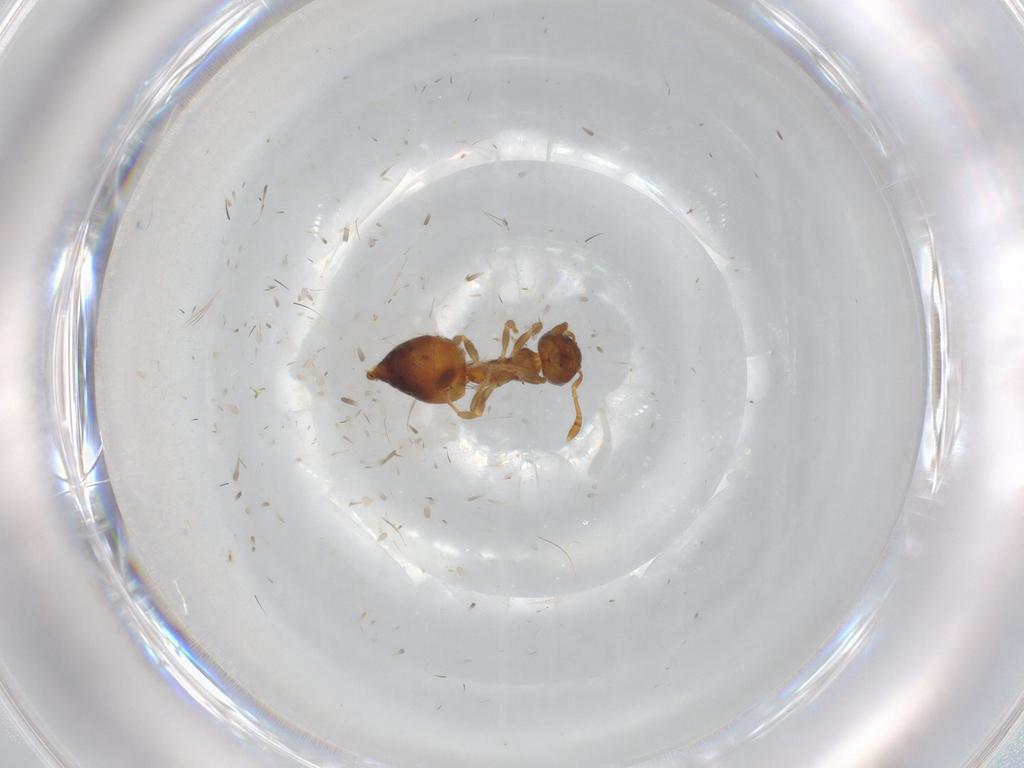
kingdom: Animalia
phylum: Arthropoda
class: Insecta
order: Hymenoptera
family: Formicidae
